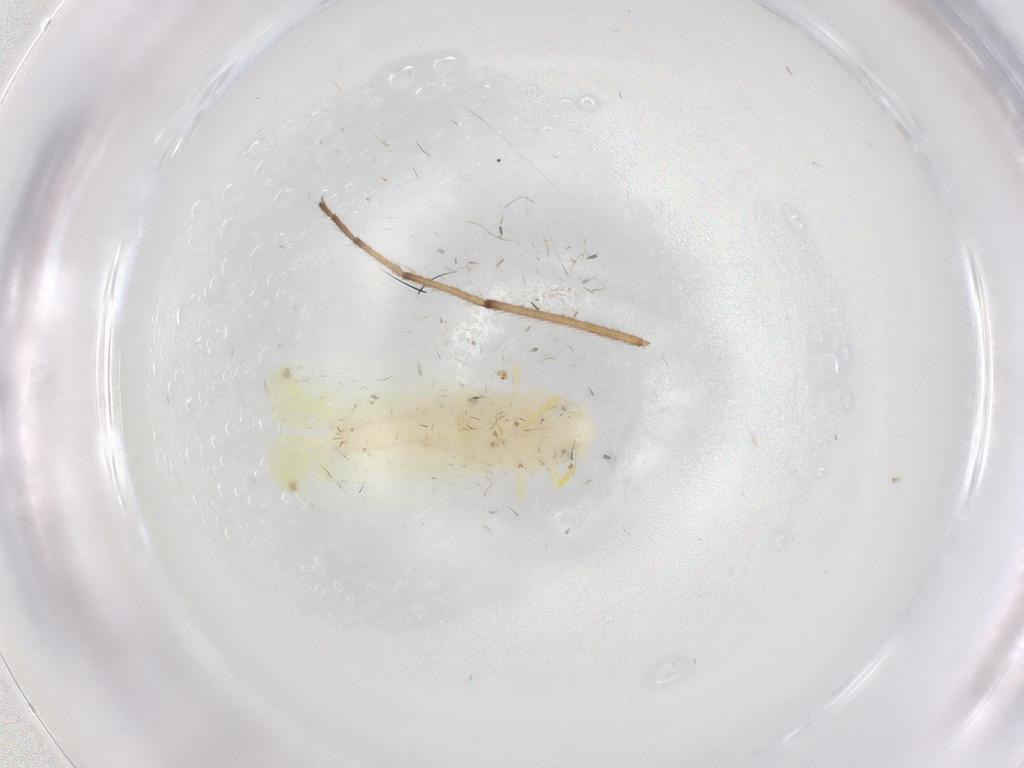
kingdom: Animalia
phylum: Arthropoda
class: Insecta
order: Hemiptera
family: Cicadellidae
